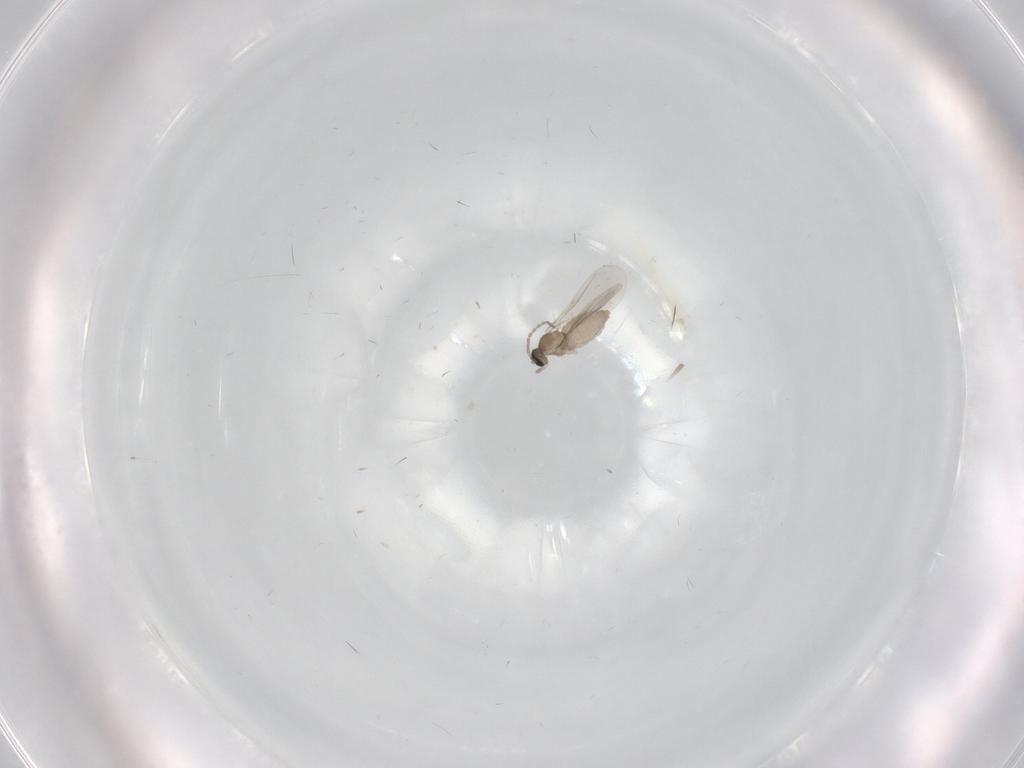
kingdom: Animalia
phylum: Arthropoda
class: Insecta
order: Diptera
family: Cecidomyiidae
